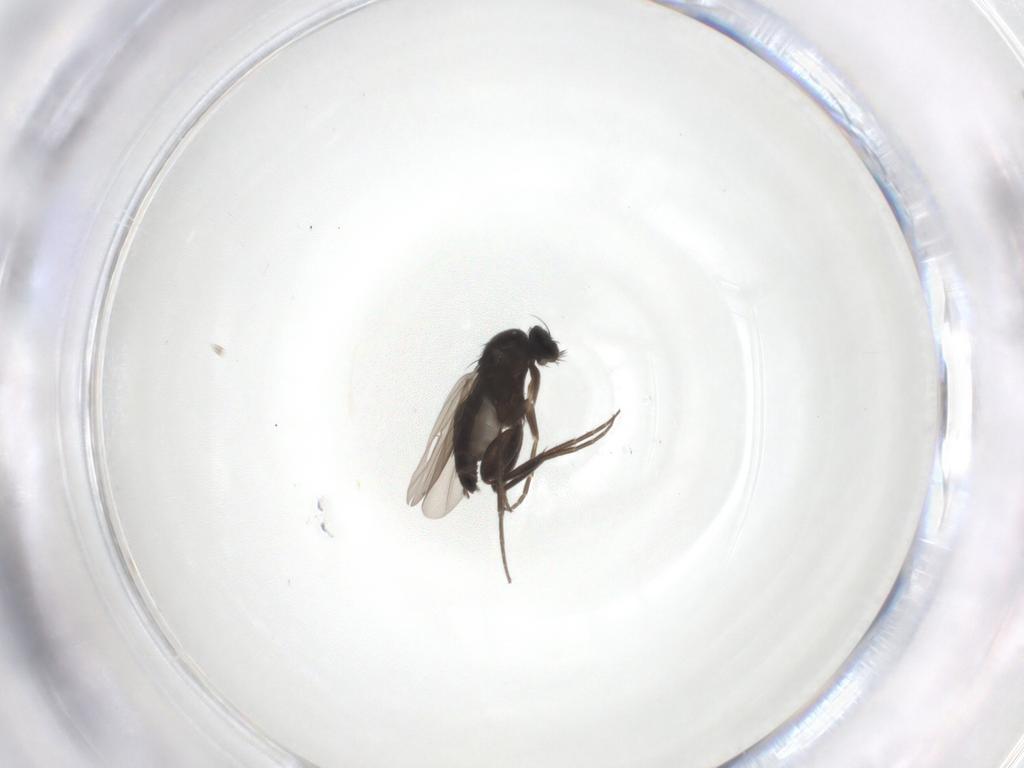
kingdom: Animalia
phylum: Arthropoda
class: Insecta
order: Diptera
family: Phoridae
